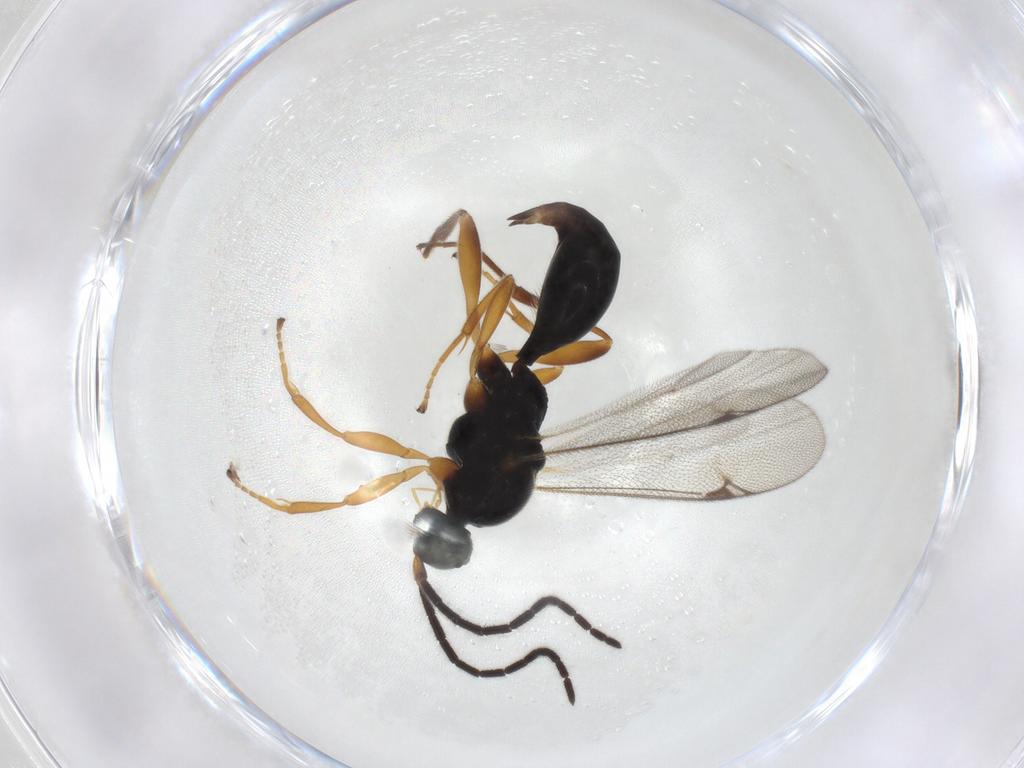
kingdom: Animalia
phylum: Arthropoda
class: Insecta
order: Hymenoptera
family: Proctotrupidae
